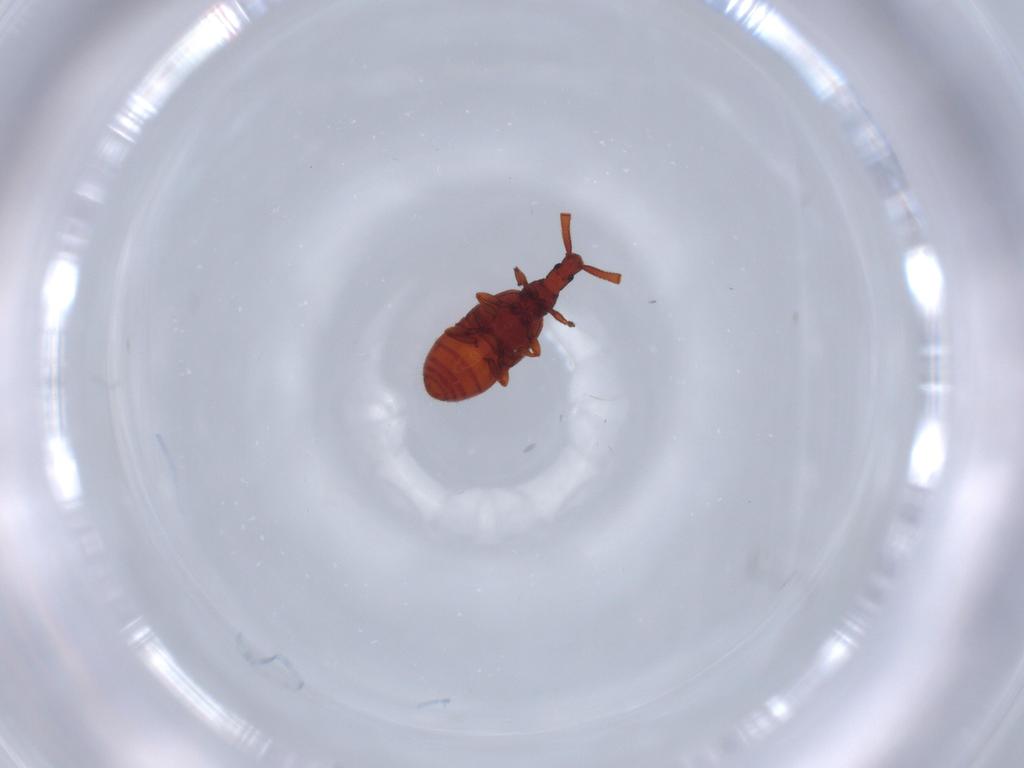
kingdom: Animalia
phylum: Arthropoda
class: Insecta
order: Coleoptera
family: Staphylinidae
